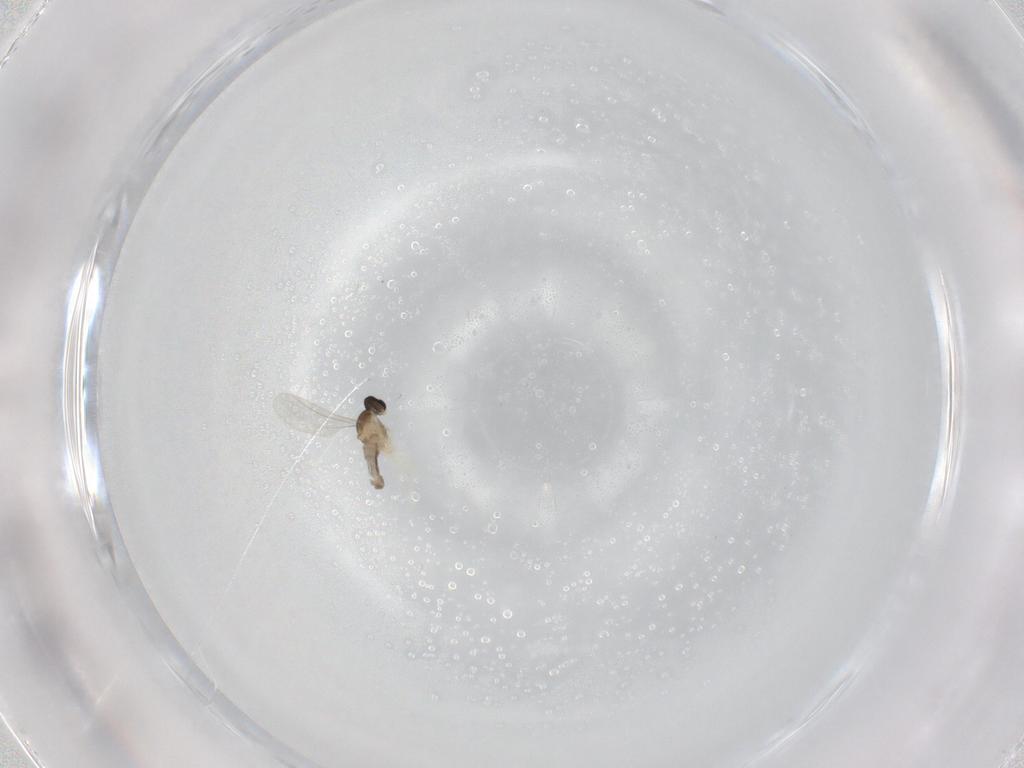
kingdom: Animalia
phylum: Arthropoda
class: Insecta
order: Diptera
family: Cecidomyiidae
